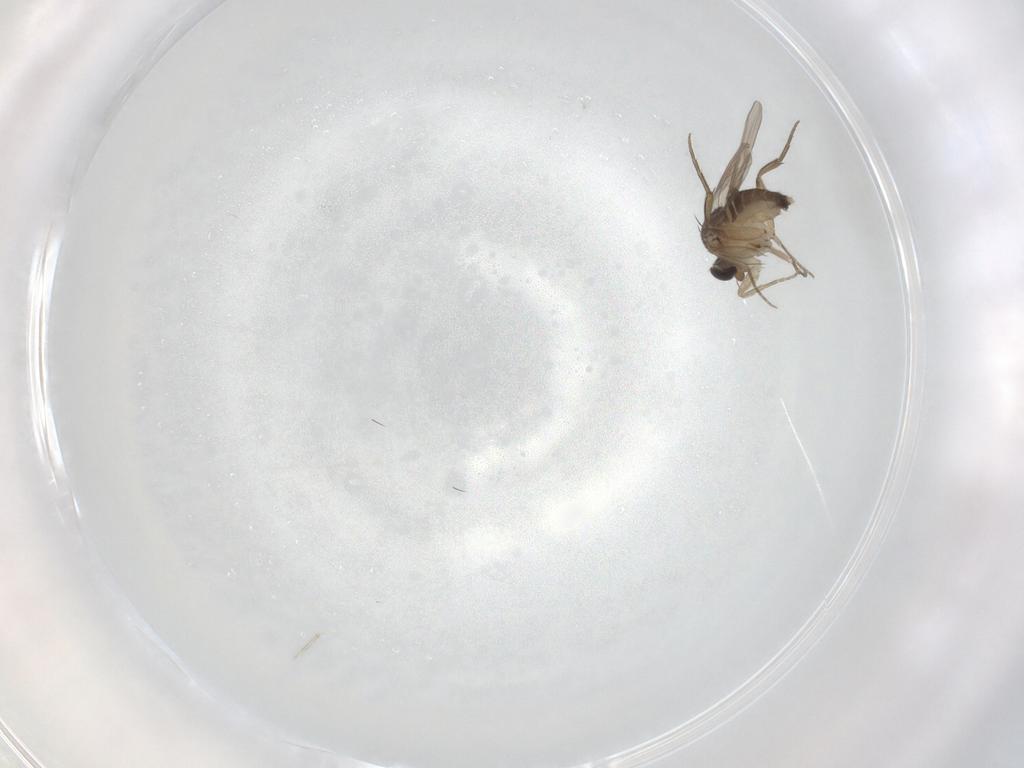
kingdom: Animalia
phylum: Arthropoda
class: Insecta
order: Diptera
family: Phoridae
